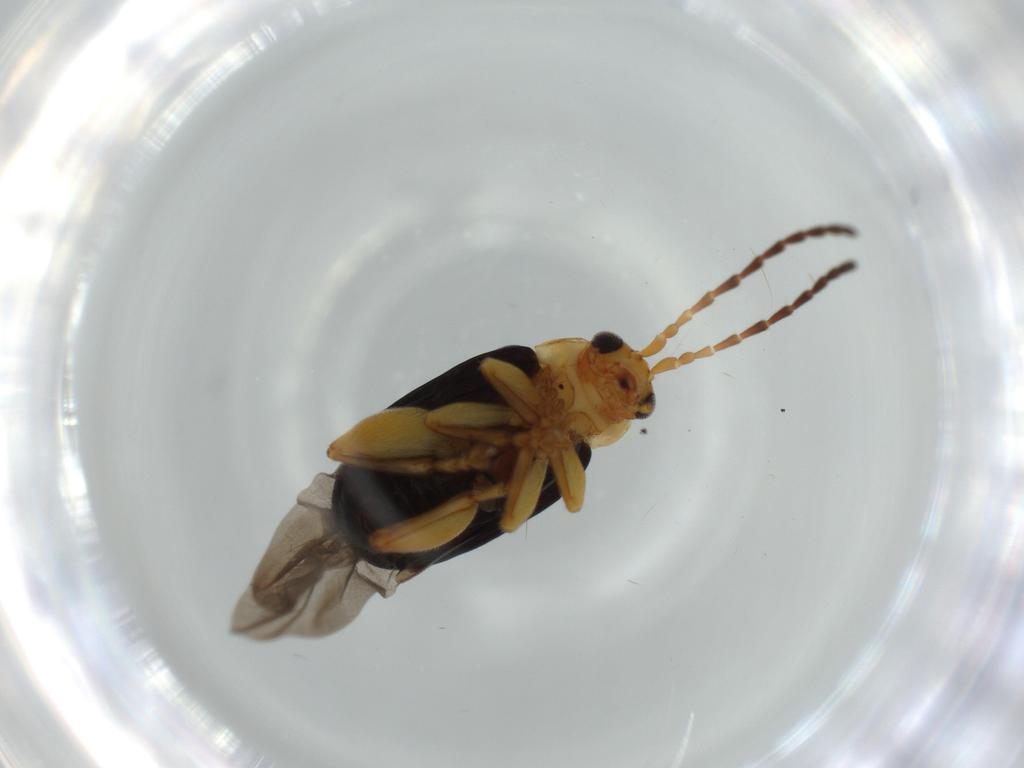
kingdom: Animalia
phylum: Arthropoda
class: Insecta
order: Coleoptera
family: Chrysomelidae
